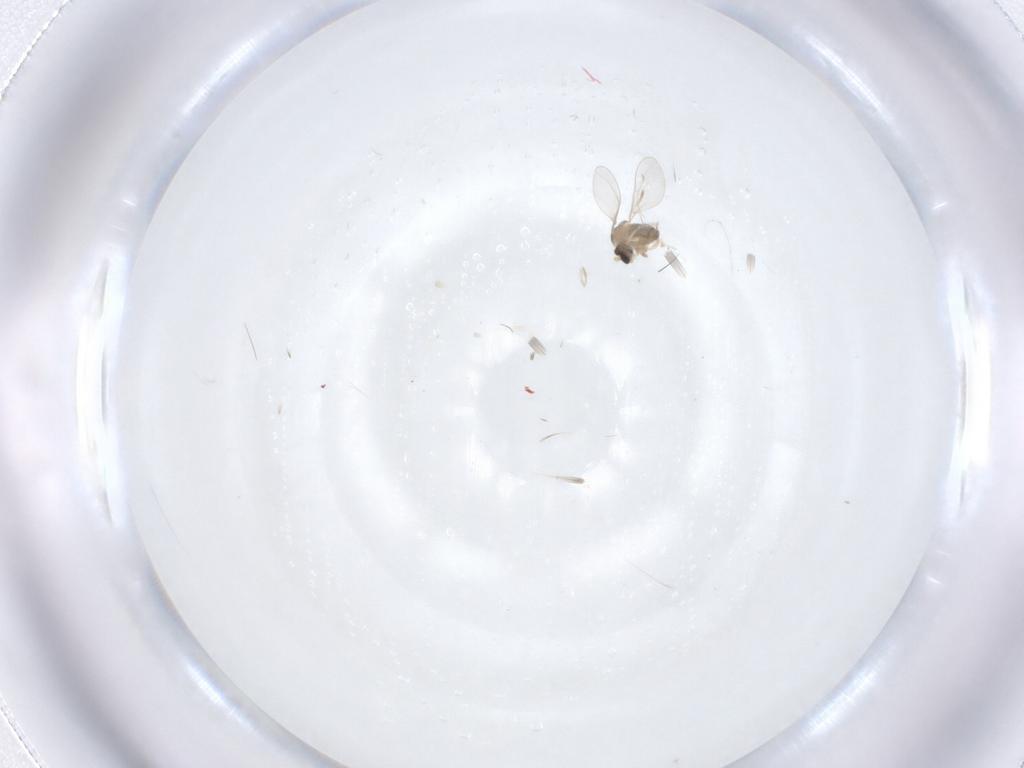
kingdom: Animalia
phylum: Arthropoda
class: Insecta
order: Diptera
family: Cecidomyiidae
